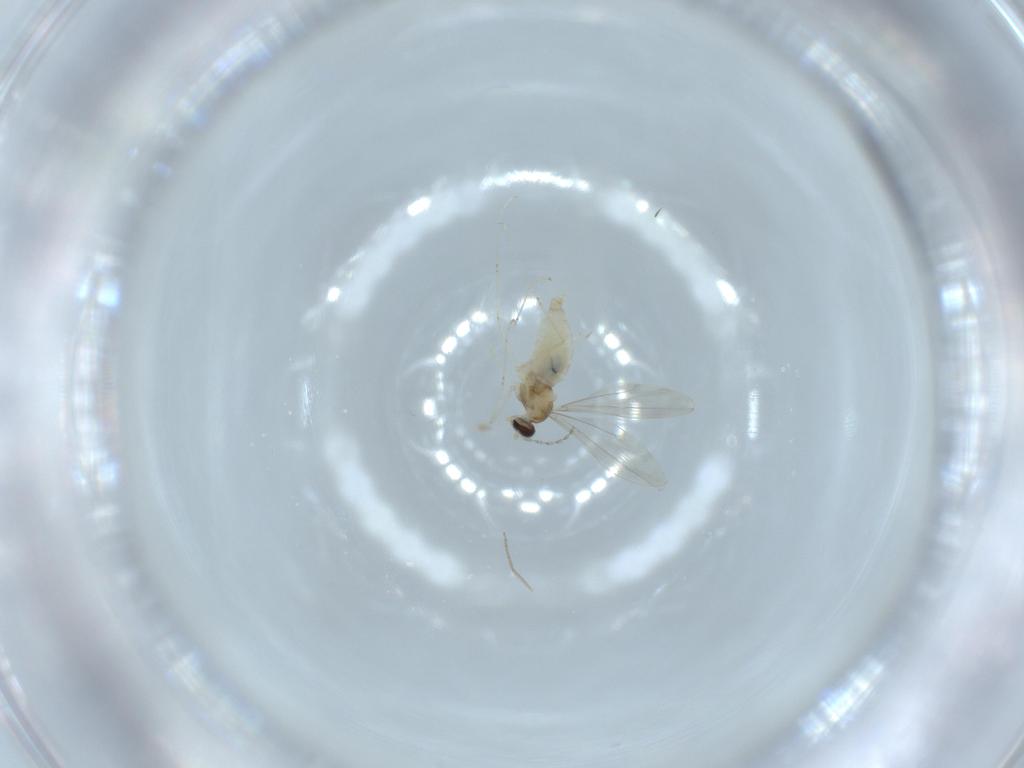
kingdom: Animalia
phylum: Arthropoda
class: Insecta
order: Diptera
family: Cecidomyiidae
